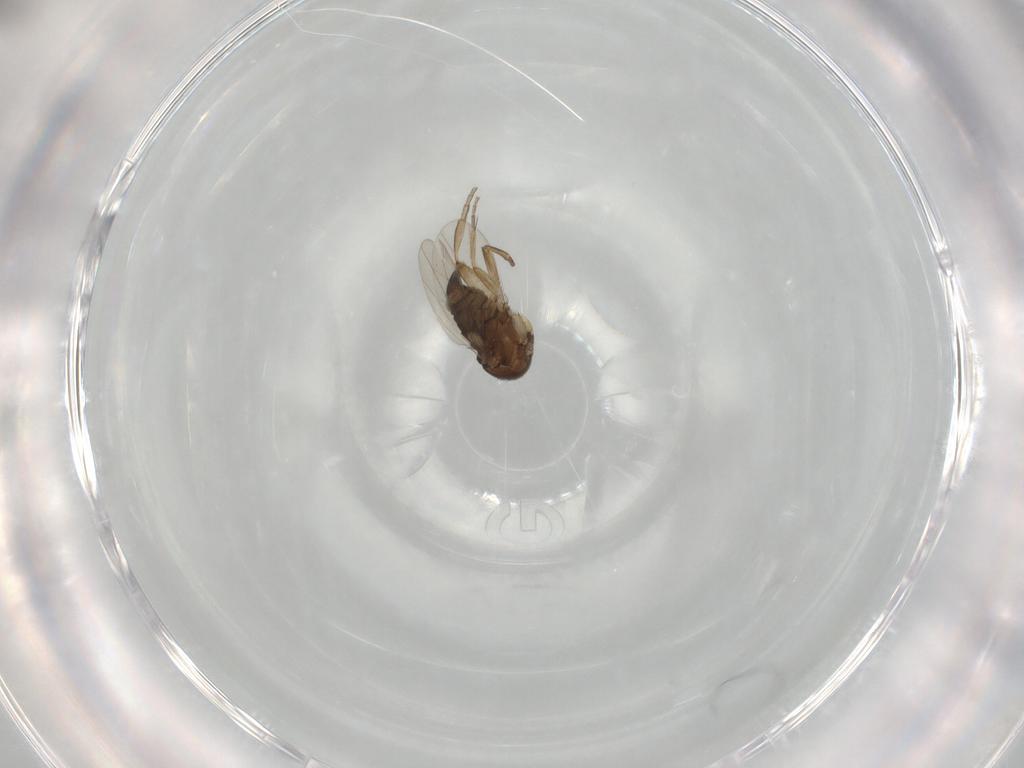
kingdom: Animalia
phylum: Arthropoda
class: Insecta
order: Diptera
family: Phoridae
